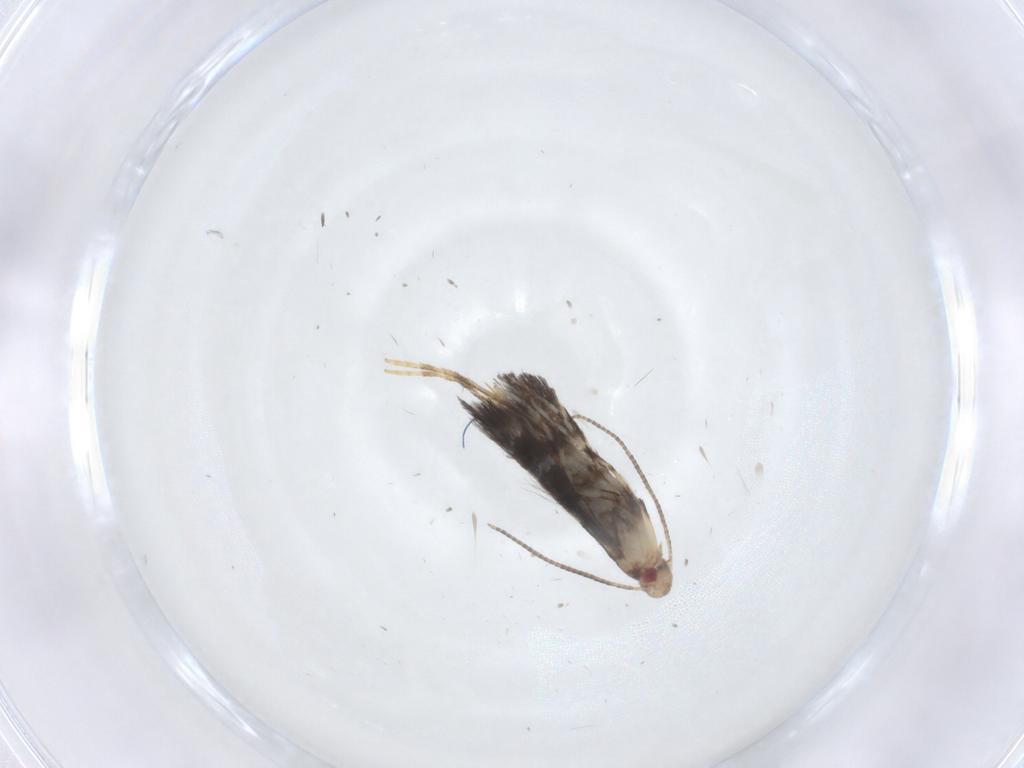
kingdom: Animalia
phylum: Arthropoda
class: Insecta
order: Lepidoptera
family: Gracillariidae
